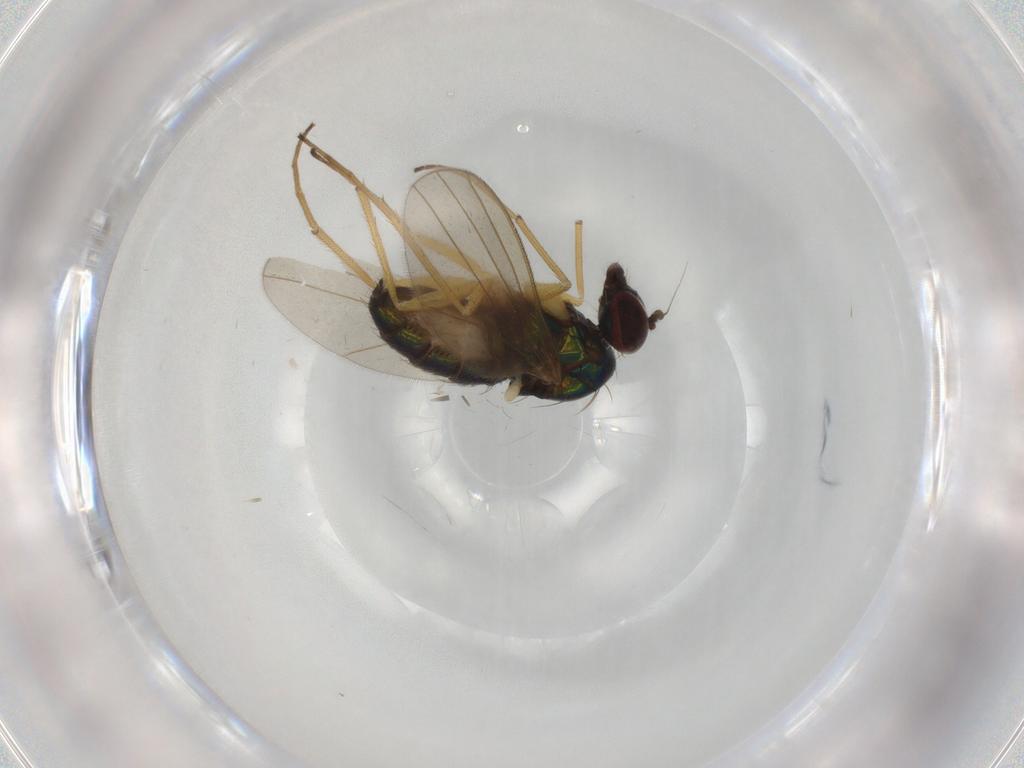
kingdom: Animalia
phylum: Arthropoda
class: Insecta
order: Diptera
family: Dolichopodidae
